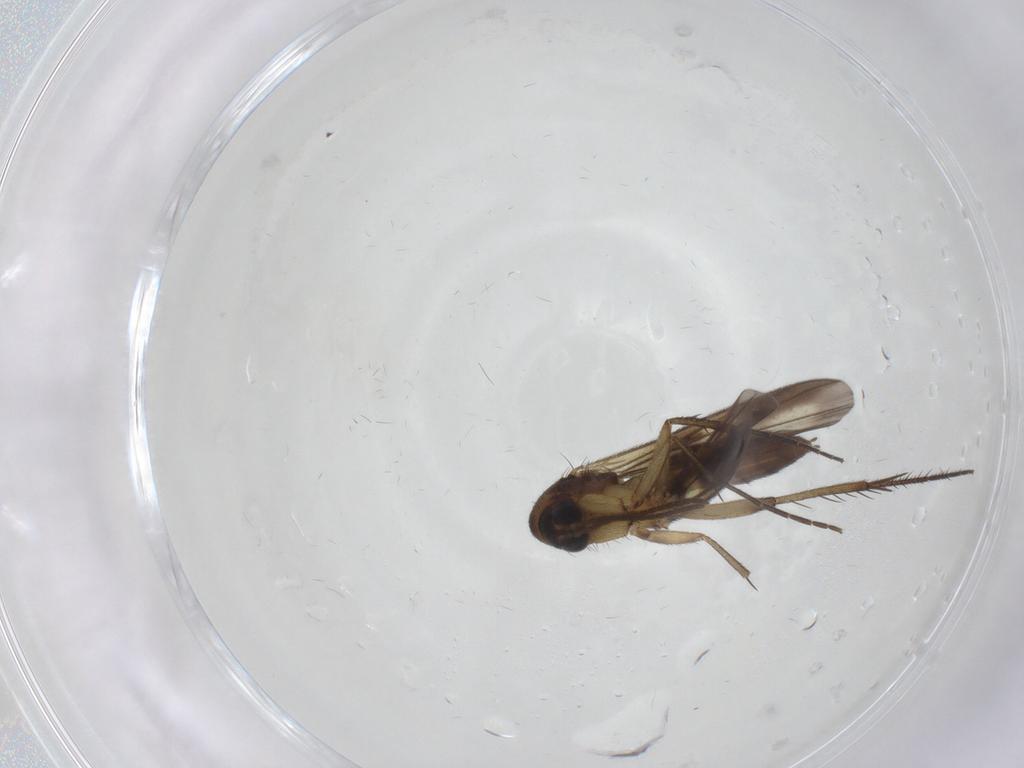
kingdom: Animalia
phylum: Arthropoda
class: Insecta
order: Diptera
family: Mycetophilidae
